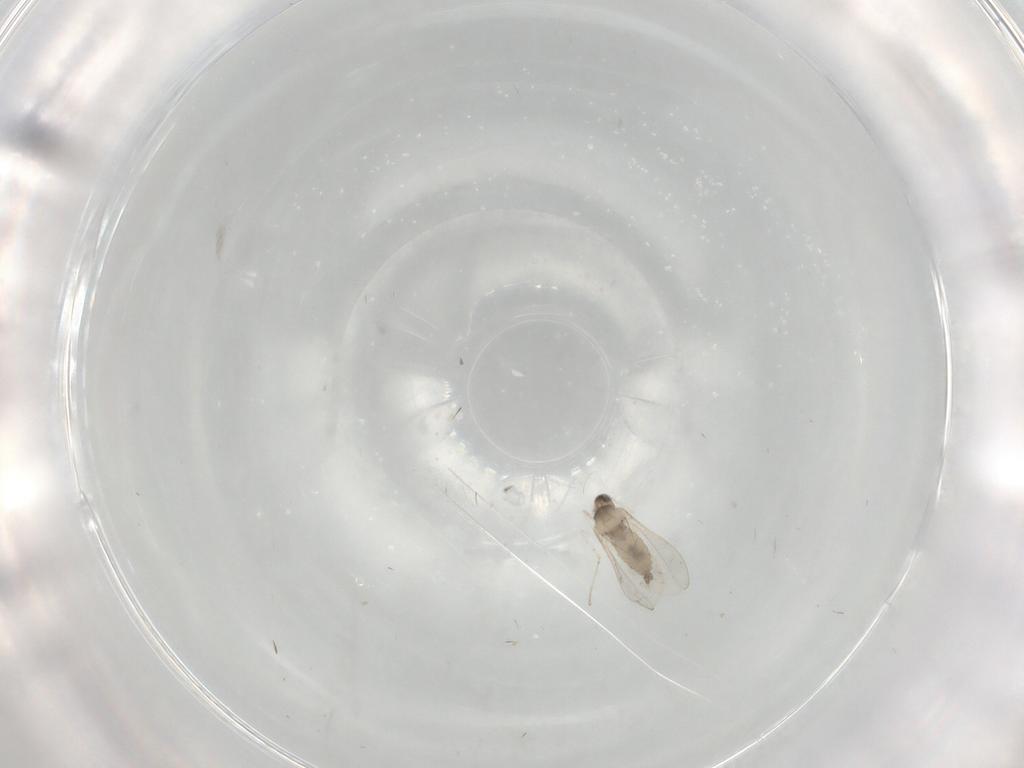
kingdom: Animalia
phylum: Arthropoda
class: Insecta
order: Diptera
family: Cecidomyiidae
